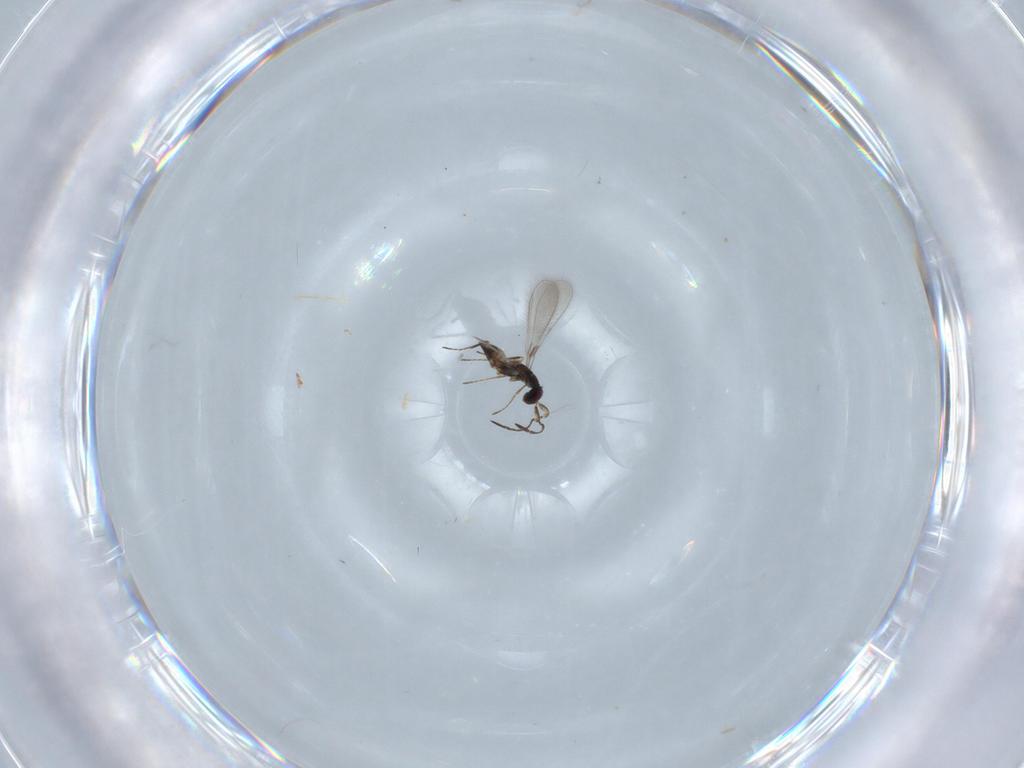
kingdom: Animalia
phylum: Arthropoda
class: Insecta
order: Hymenoptera
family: Mymaridae
